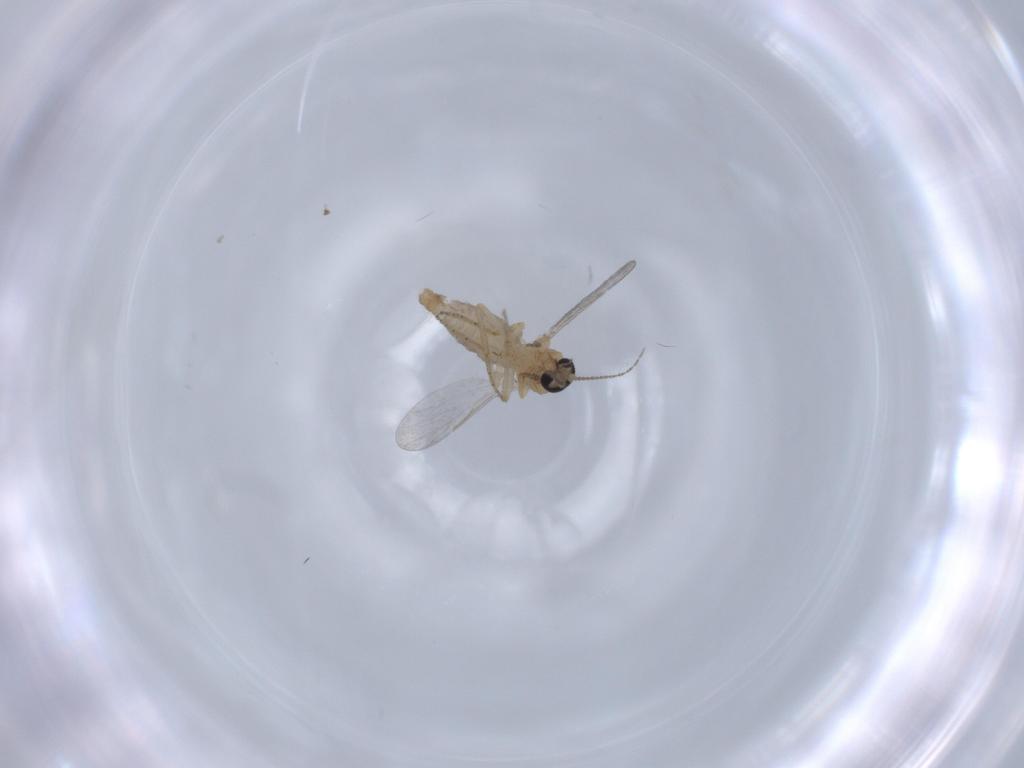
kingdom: Animalia
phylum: Arthropoda
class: Insecta
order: Diptera
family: Ceratopogonidae
